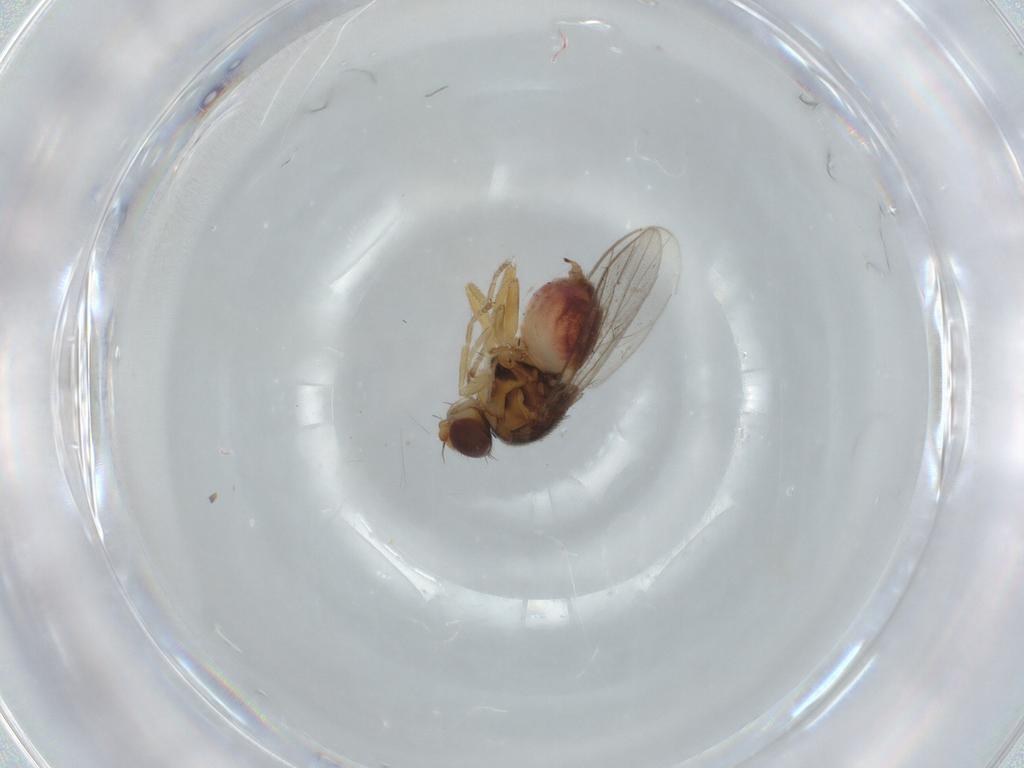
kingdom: Animalia
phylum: Arthropoda
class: Insecta
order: Diptera
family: Chloropidae
